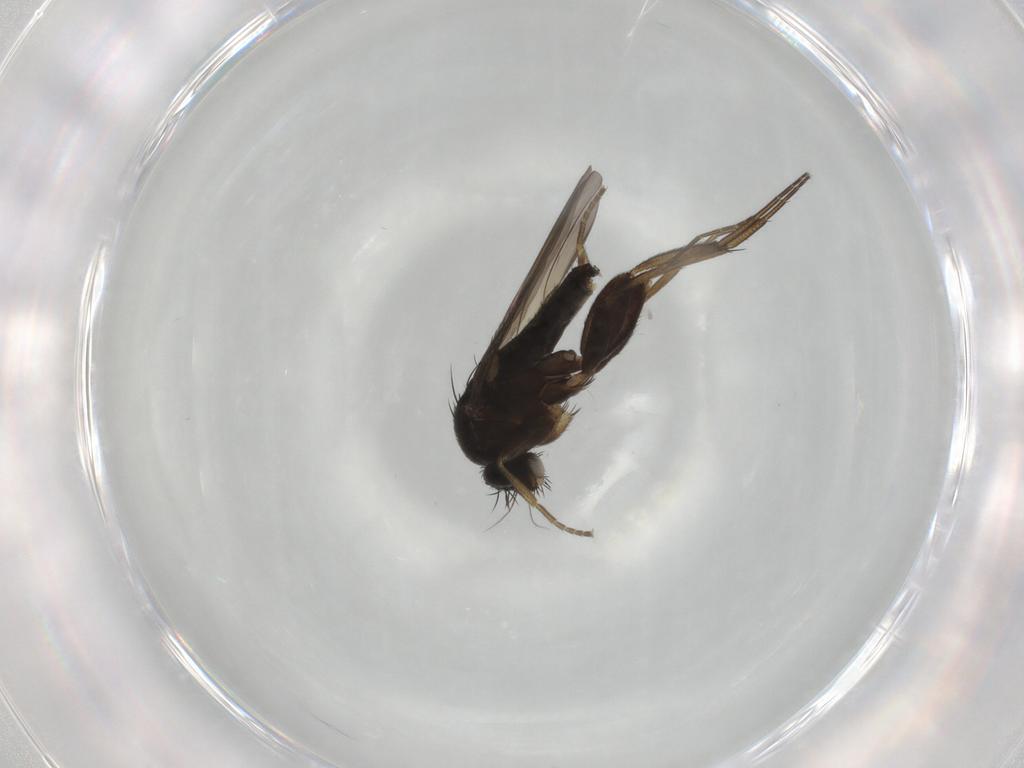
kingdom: Animalia
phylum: Arthropoda
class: Insecta
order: Diptera
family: Phoridae
